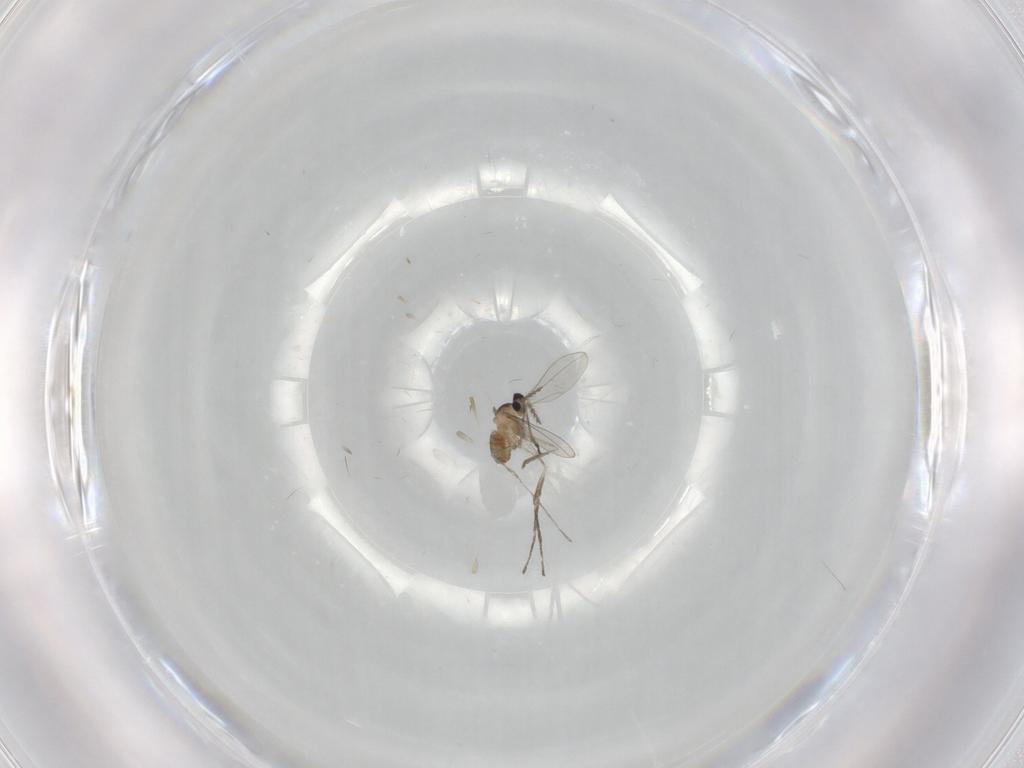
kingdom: Animalia
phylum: Arthropoda
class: Insecta
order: Diptera
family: Cecidomyiidae
